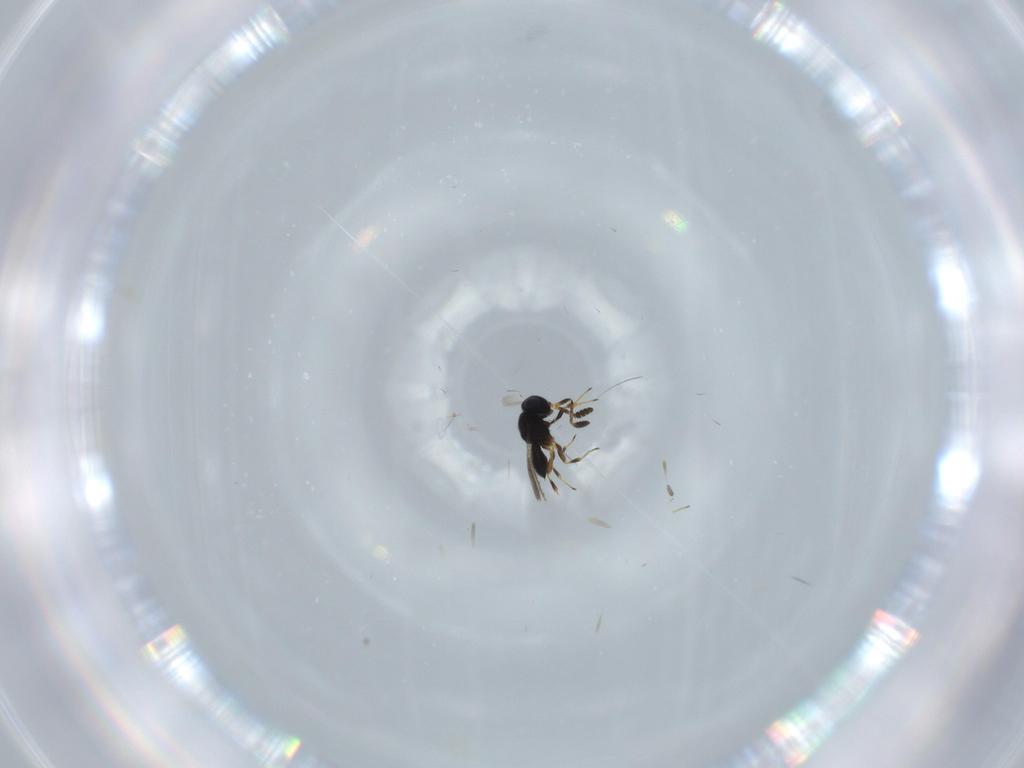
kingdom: Animalia
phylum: Arthropoda
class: Insecta
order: Hymenoptera
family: Scelionidae
